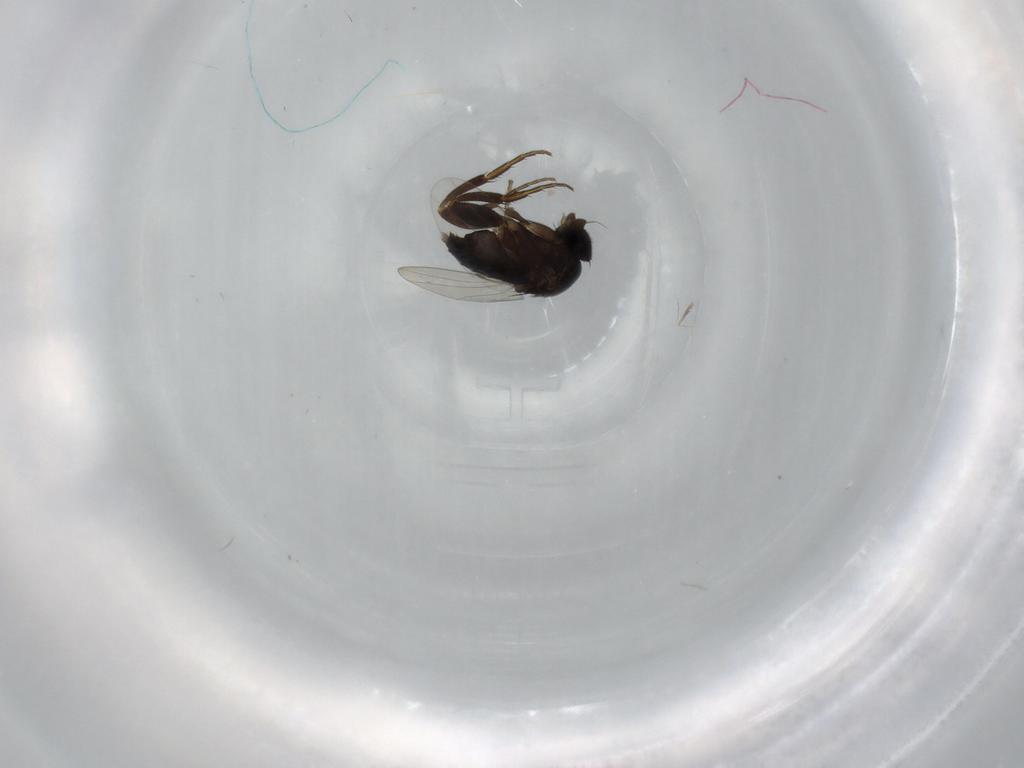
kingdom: Animalia
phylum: Arthropoda
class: Insecta
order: Diptera
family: Phoridae
